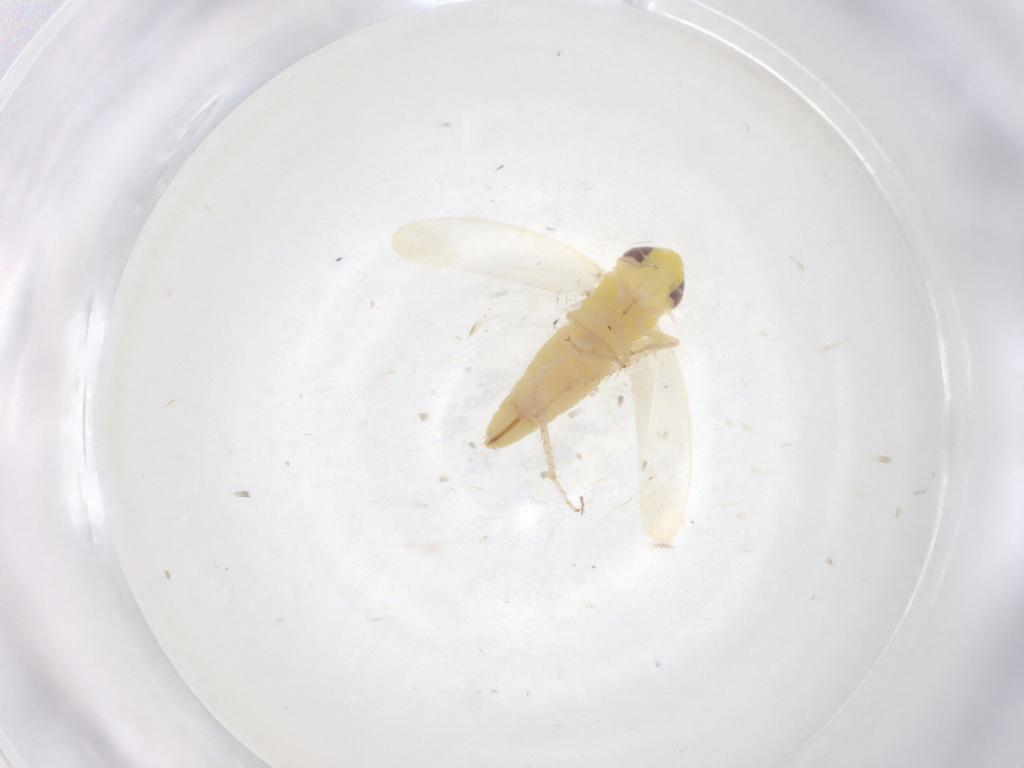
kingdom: Animalia
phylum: Arthropoda
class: Insecta
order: Hemiptera
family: Cicadellidae
